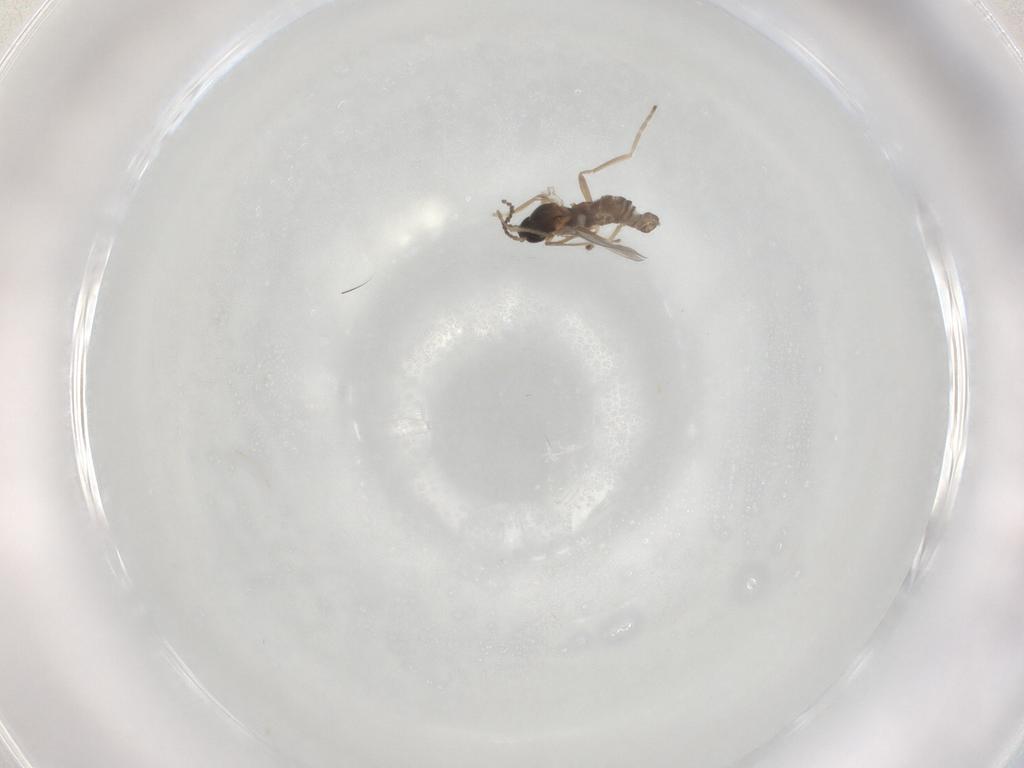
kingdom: Animalia
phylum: Arthropoda
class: Insecta
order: Diptera
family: Cecidomyiidae
